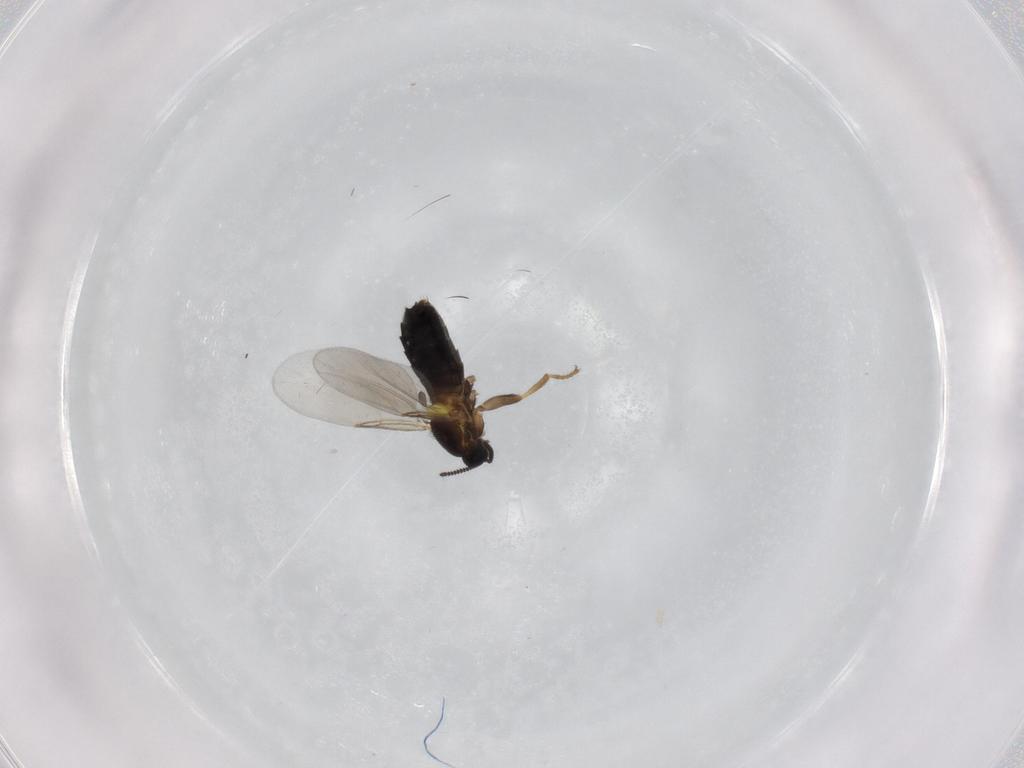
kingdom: Animalia
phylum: Arthropoda
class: Insecta
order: Diptera
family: Scatopsidae
